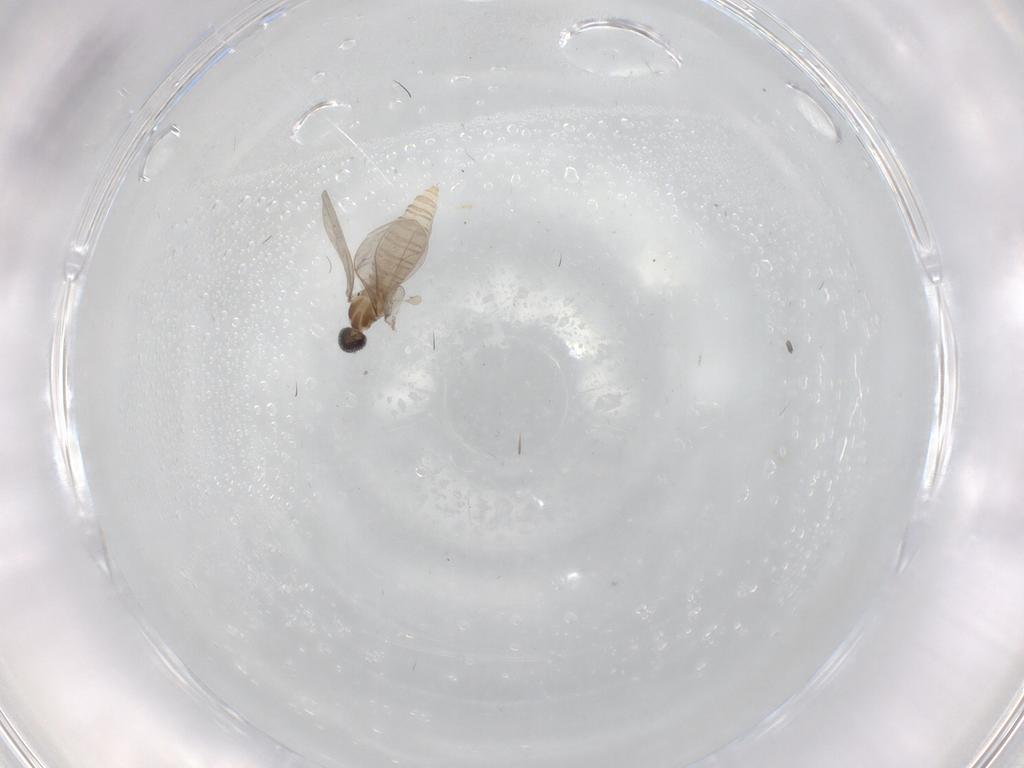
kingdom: Animalia
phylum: Arthropoda
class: Insecta
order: Diptera
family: Cecidomyiidae
